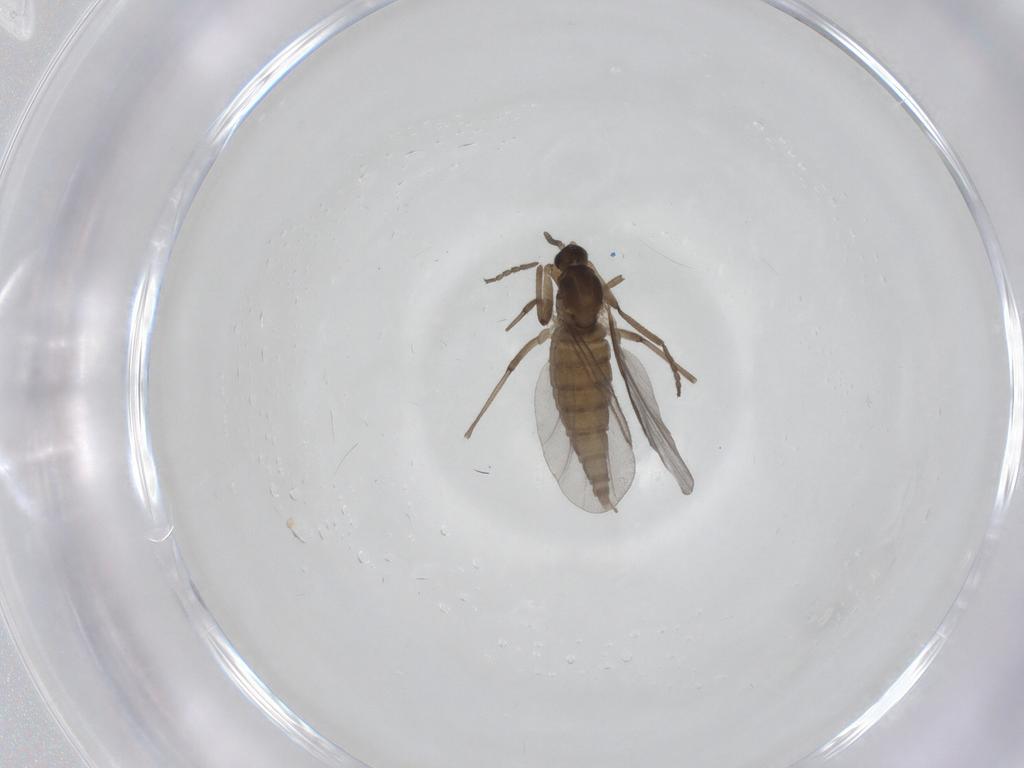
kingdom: Animalia
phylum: Arthropoda
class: Insecta
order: Diptera
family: Cecidomyiidae
